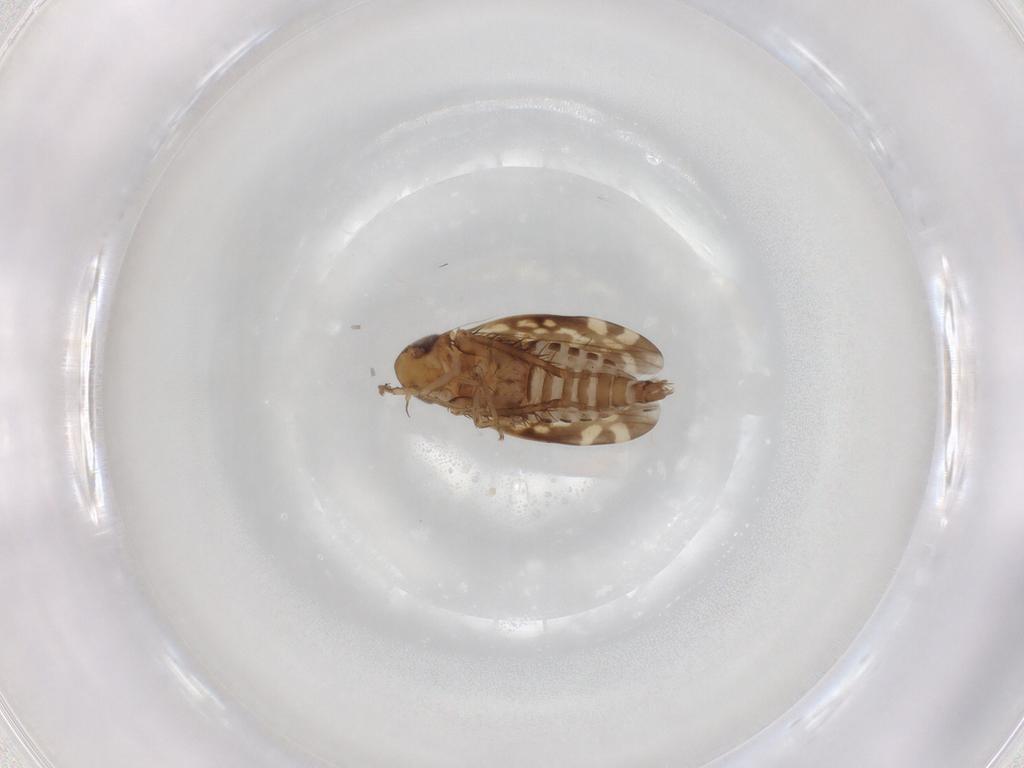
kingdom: Animalia
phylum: Arthropoda
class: Insecta
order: Hemiptera
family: Cicadellidae
